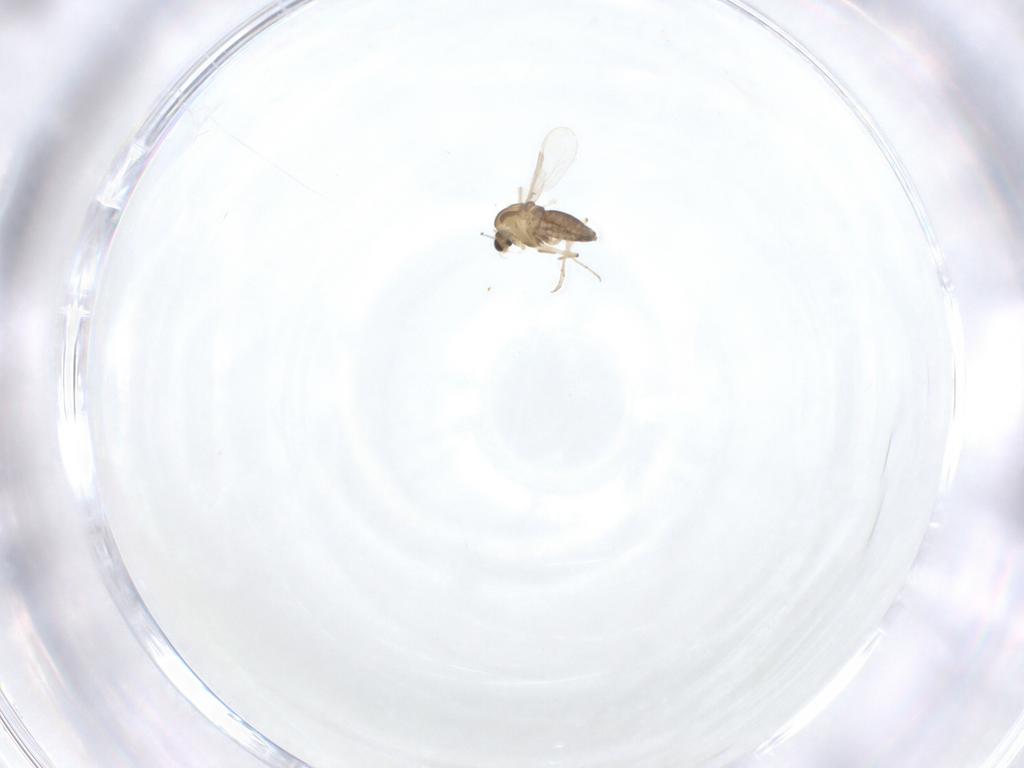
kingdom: Animalia
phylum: Arthropoda
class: Insecta
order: Diptera
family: Chironomidae
